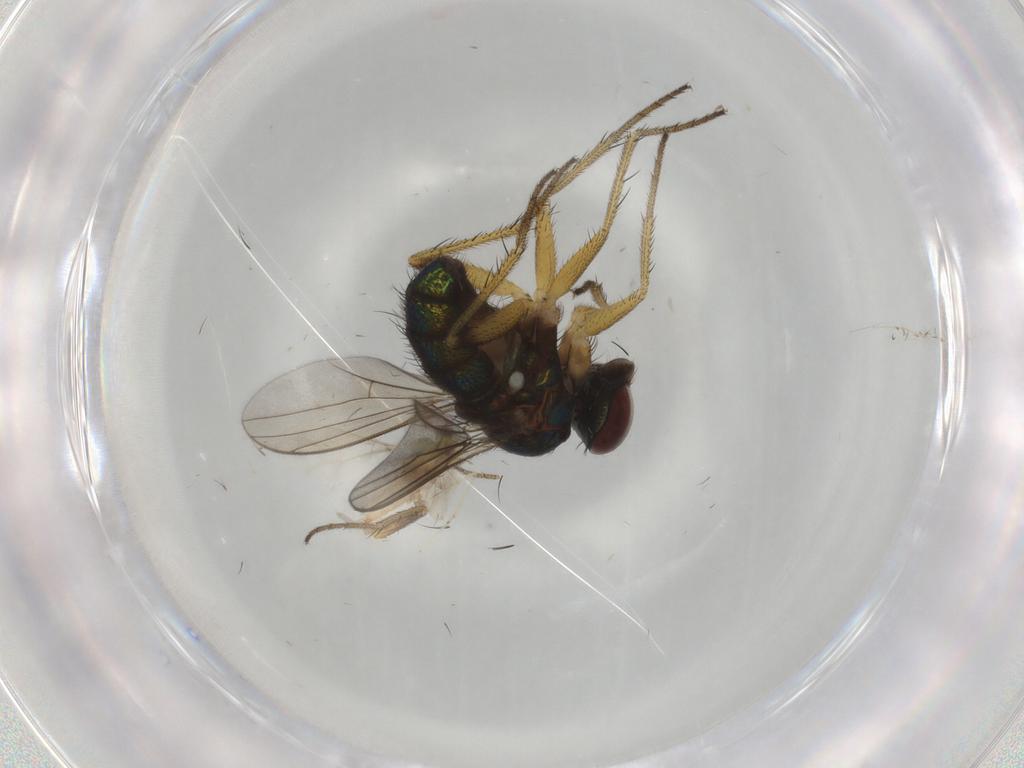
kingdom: Animalia
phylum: Arthropoda
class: Insecta
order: Diptera
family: Dolichopodidae
